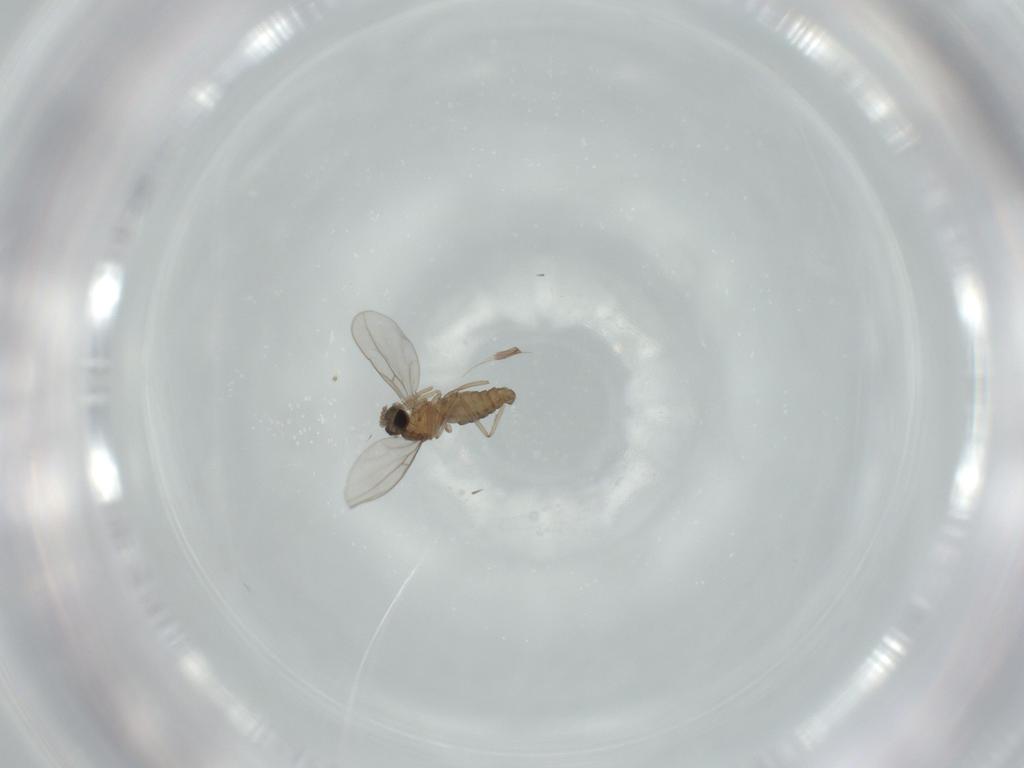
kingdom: Animalia
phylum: Arthropoda
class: Insecta
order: Diptera
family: Cecidomyiidae
